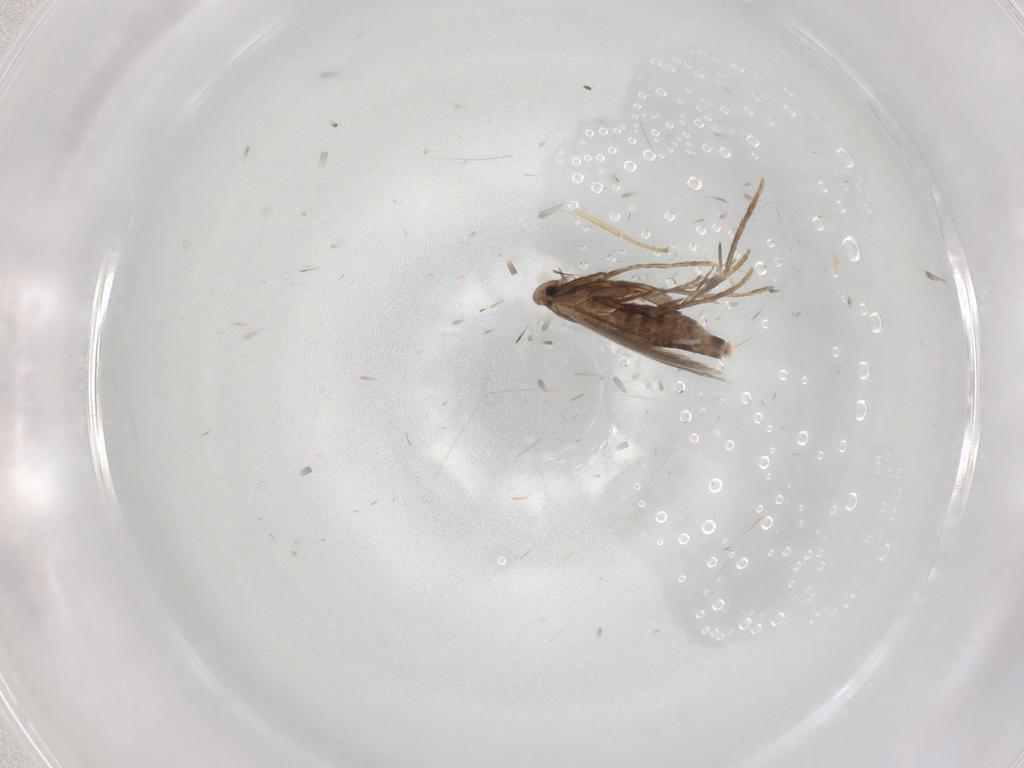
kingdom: Animalia
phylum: Arthropoda
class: Insecta
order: Lepidoptera
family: Gracillariidae
